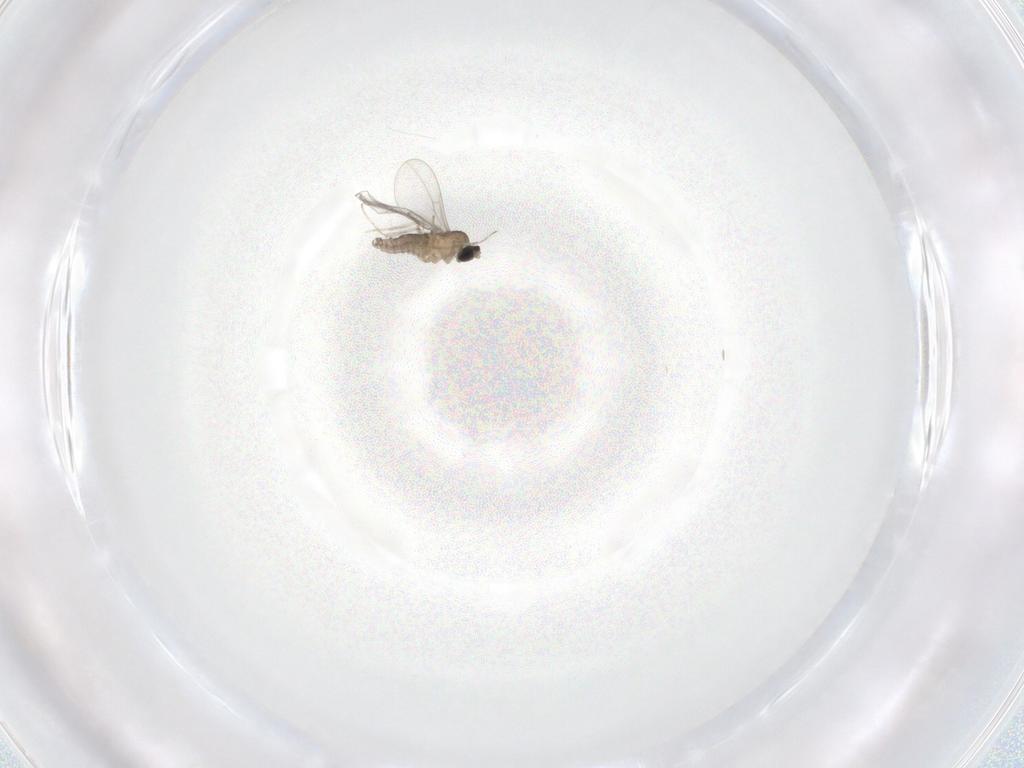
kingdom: Animalia
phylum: Arthropoda
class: Insecta
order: Diptera
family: Cecidomyiidae
